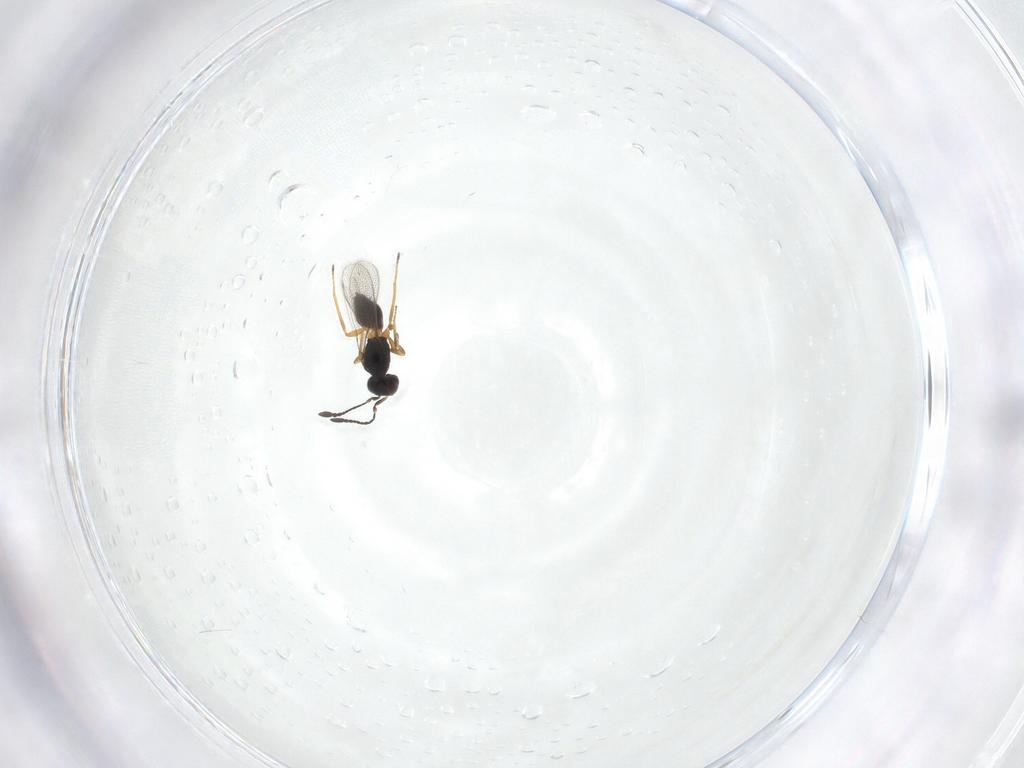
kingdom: Animalia
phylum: Arthropoda
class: Insecta
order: Hymenoptera
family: Mymaridae
